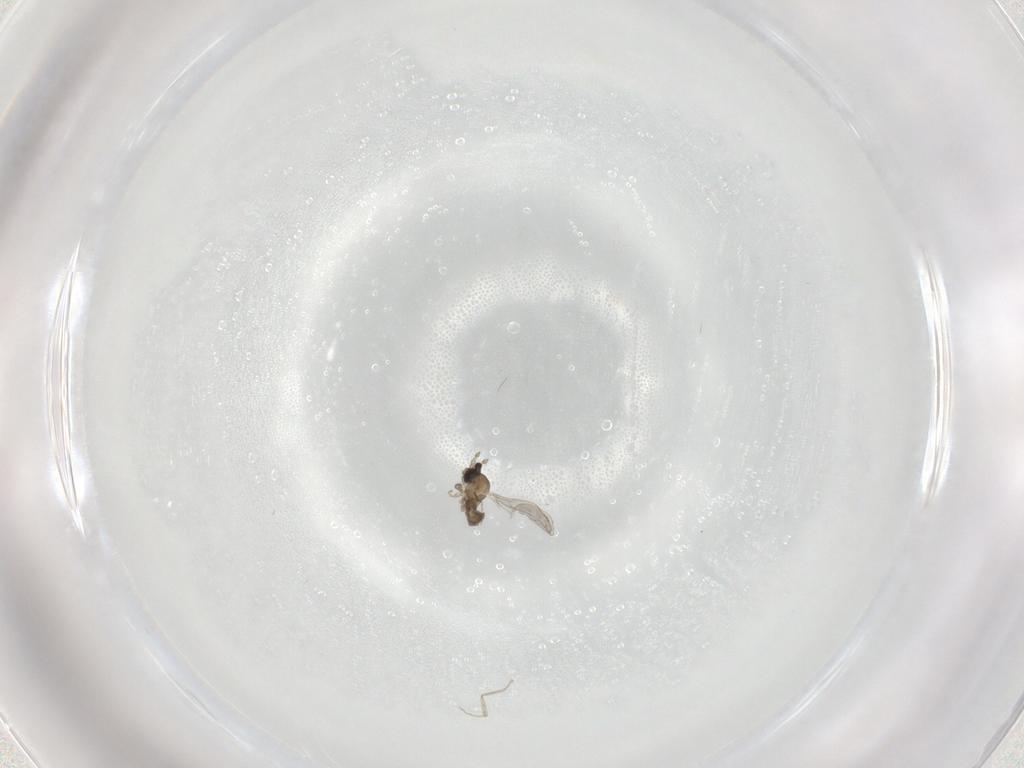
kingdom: Animalia
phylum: Arthropoda
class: Insecta
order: Diptera
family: Cecidomyiidae
